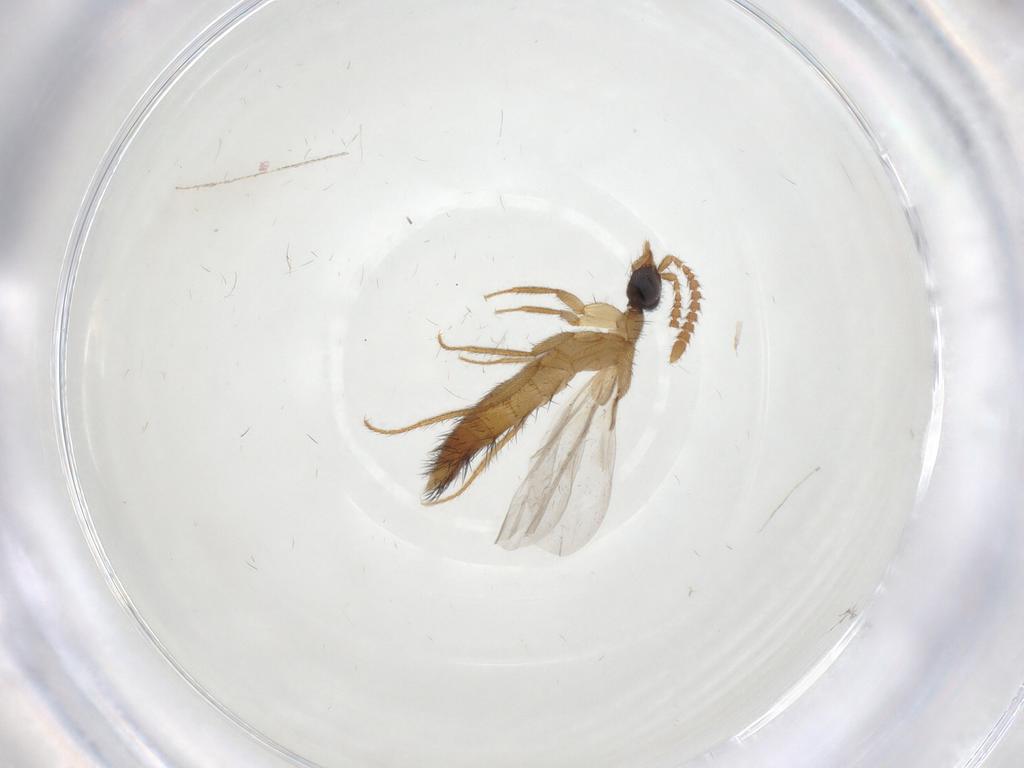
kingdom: Animalia
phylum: Arthropoda
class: Insecta
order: Coleoptera
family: Staphylinidae
